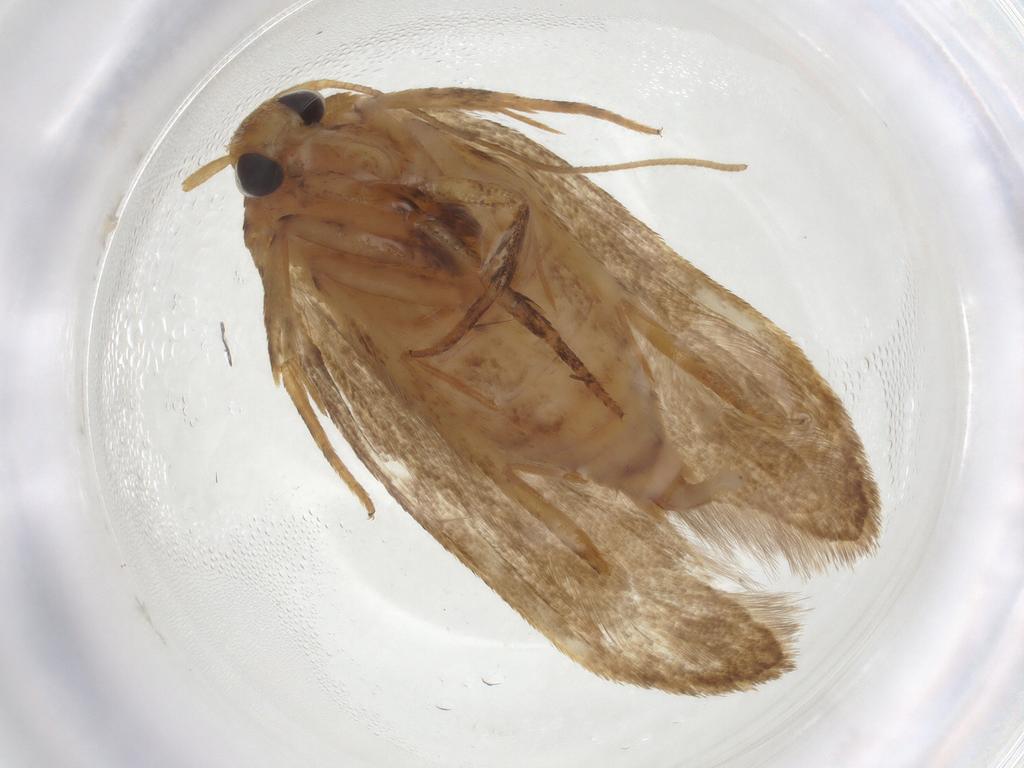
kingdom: Animalia
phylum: Arthropoda
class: Insecta
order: Lepidoptera
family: Coleophoridae
